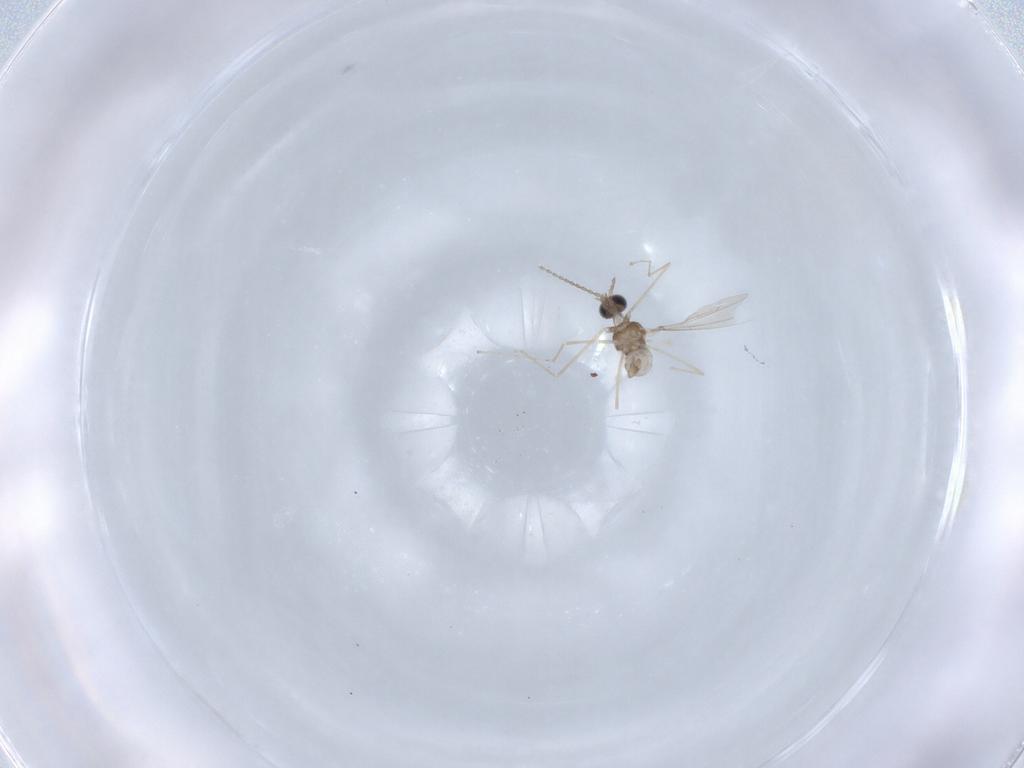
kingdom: Animalia
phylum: Arthropoda
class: Insecta
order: Diptera
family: Cecidomyiidae
